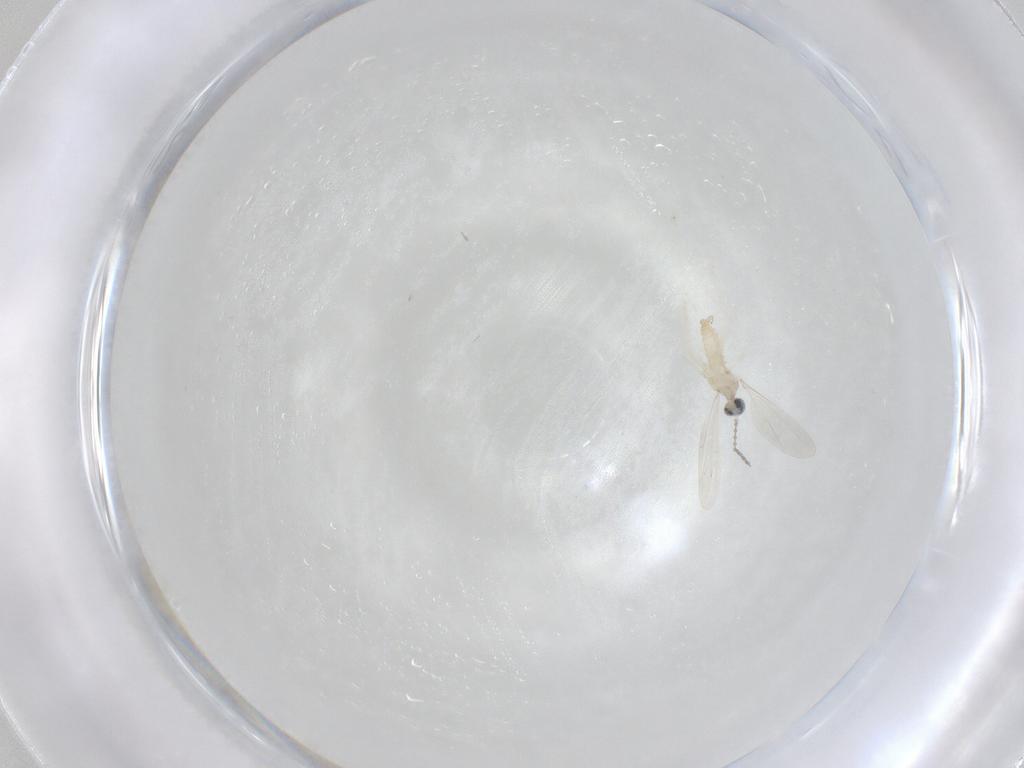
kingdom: Animalia
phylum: Arthropoda
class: Insecta
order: Diptera
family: Sciaridae
